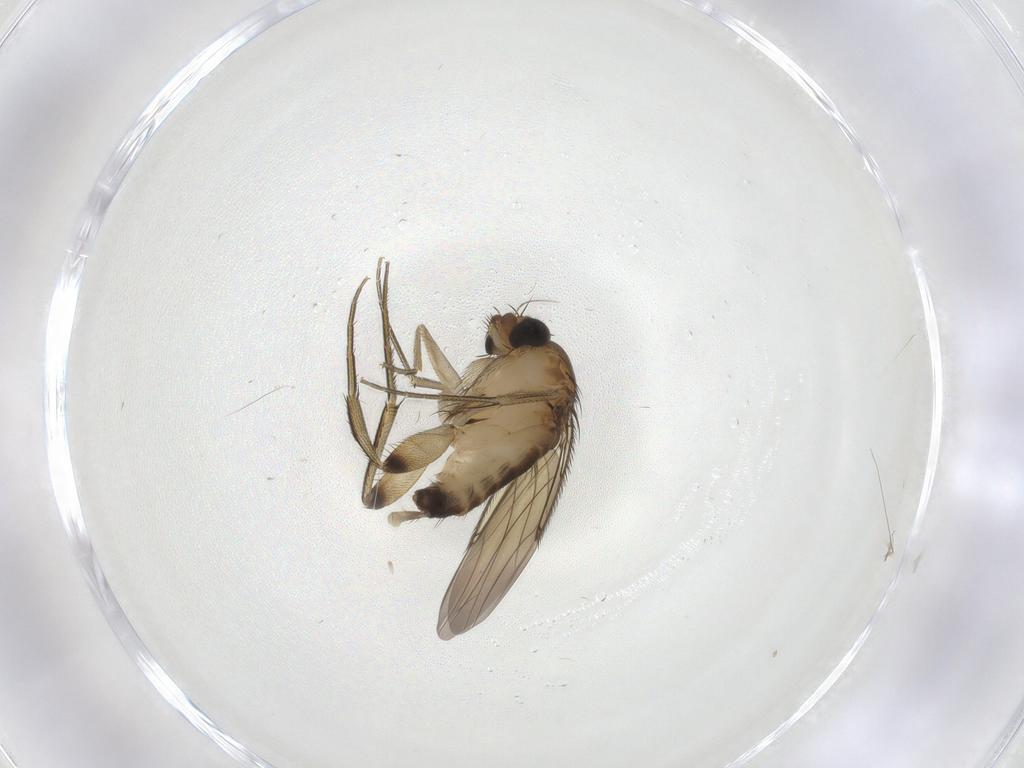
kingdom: Animalia
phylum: Arthropoda
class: Insecta
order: Diptera
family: Phoridae
